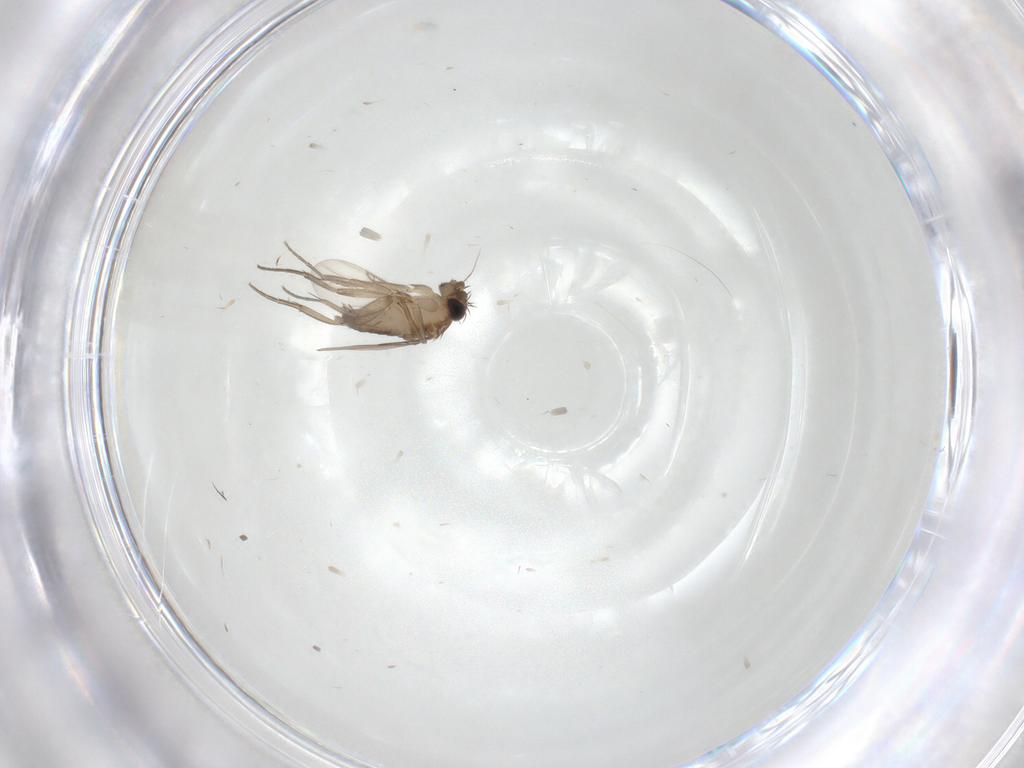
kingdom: Animalia
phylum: Arthropoda
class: Insecta
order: Diptera
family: Phoridae
